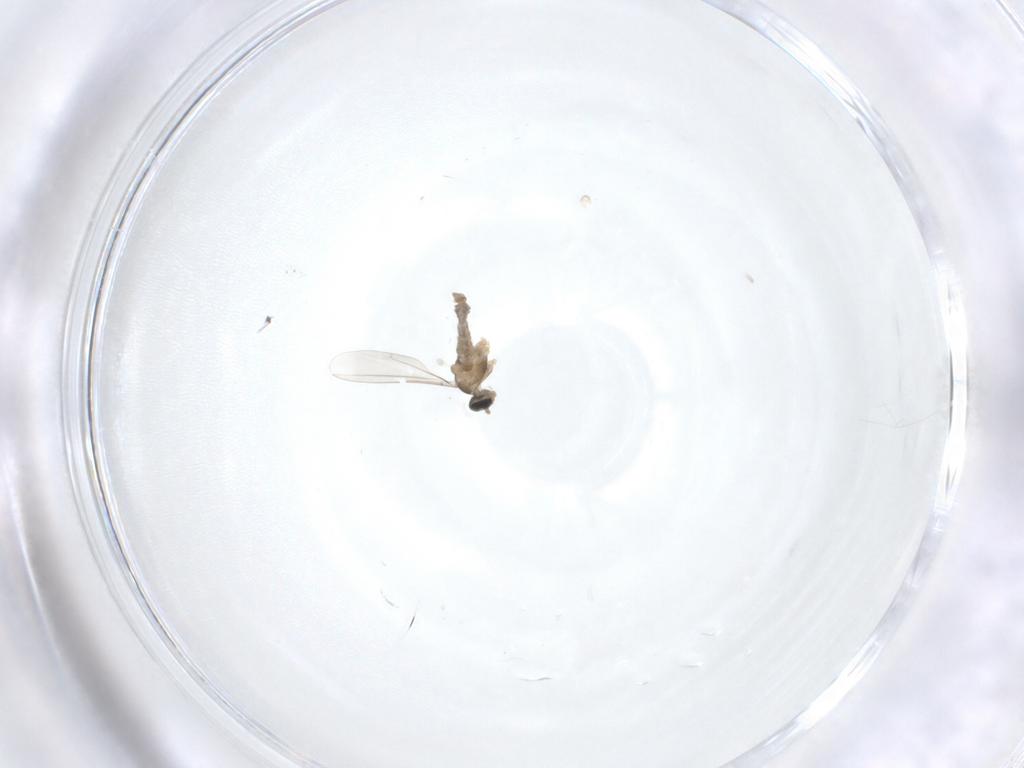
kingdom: Animalia
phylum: Arthropoda
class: Insecta
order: Diptera
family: Cecidomyiidae
